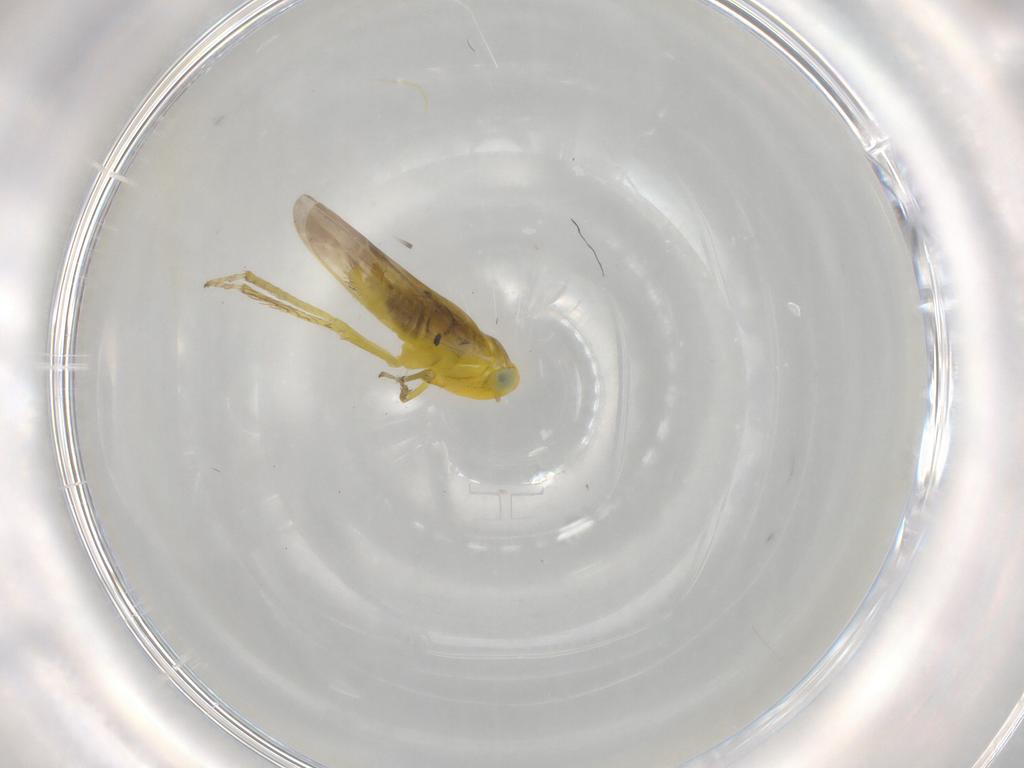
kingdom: Animalia
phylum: Arthropoda
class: Insecta
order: Hemiptera
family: Cicadellidae
